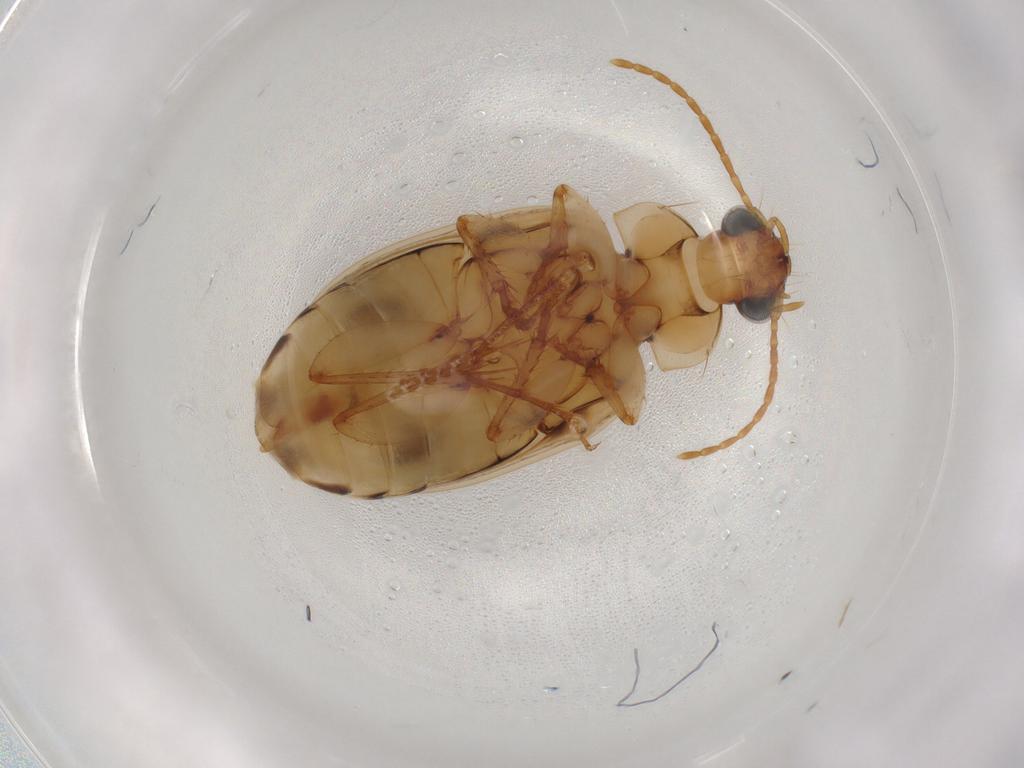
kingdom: Animalia
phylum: Arthropoda
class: Insecta
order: Coleoptera
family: Carabidae
